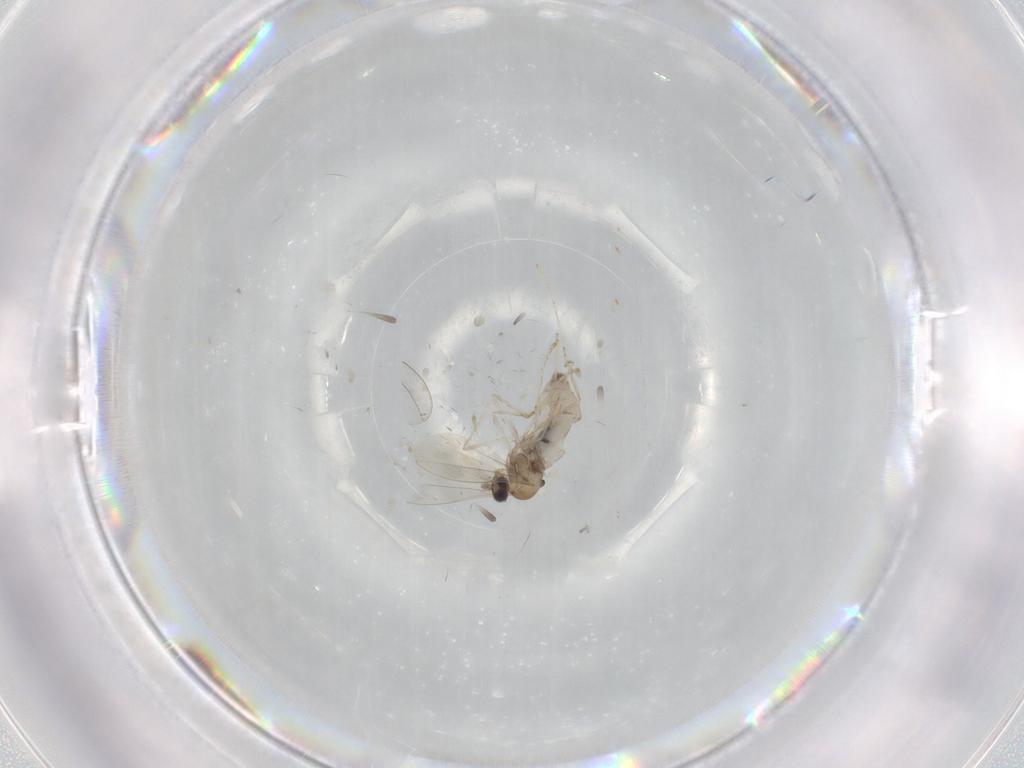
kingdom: Animalia
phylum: Arthropoda
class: Insecta
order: Diptera
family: Cecidomyiidae
